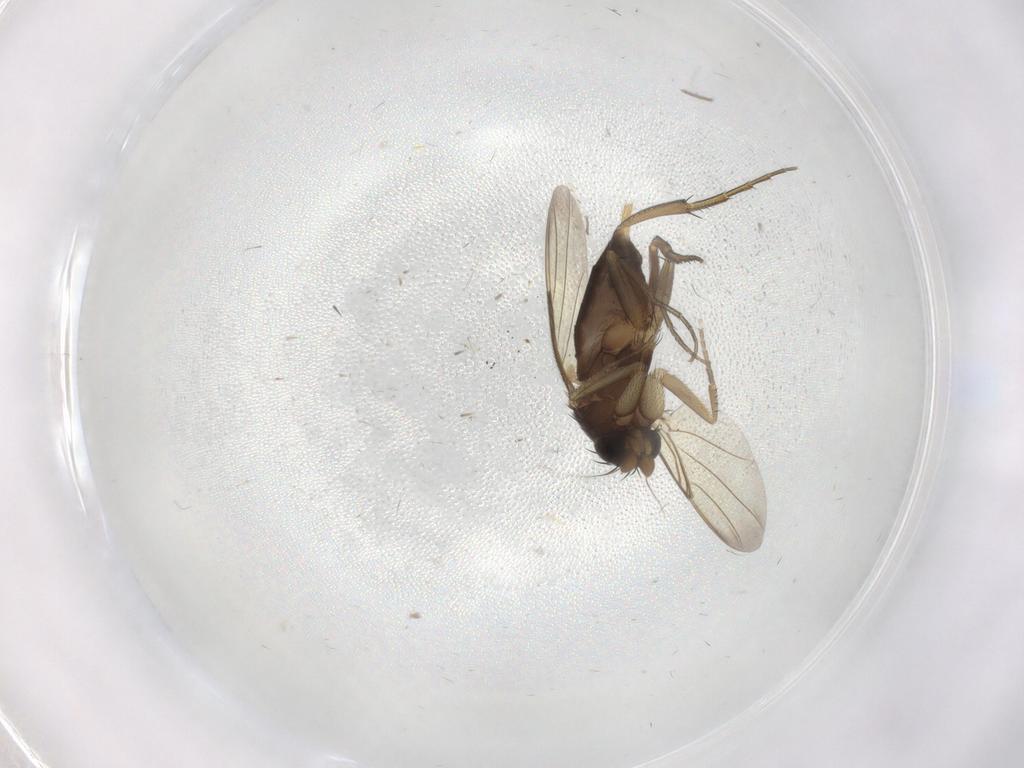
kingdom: Animalia
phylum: Arthropoda
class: Insecta
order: Diptera
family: Phoridae
